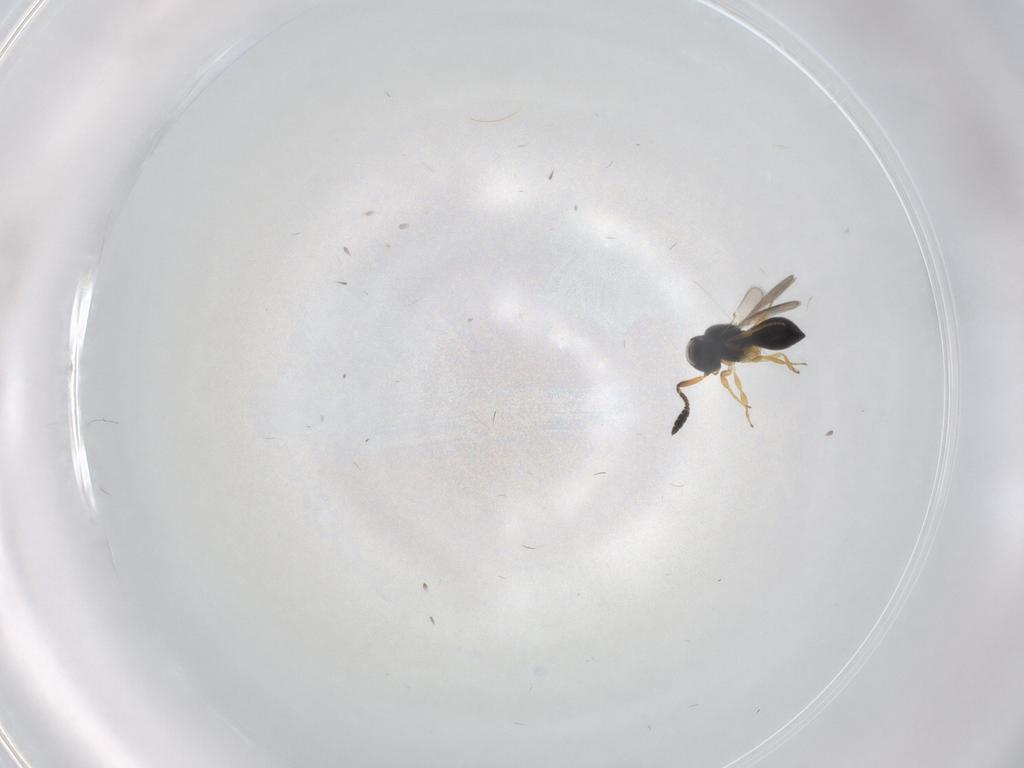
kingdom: Animalia
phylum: Arthropoda
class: Insecta
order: Hymenoptera
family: Scelionidae
